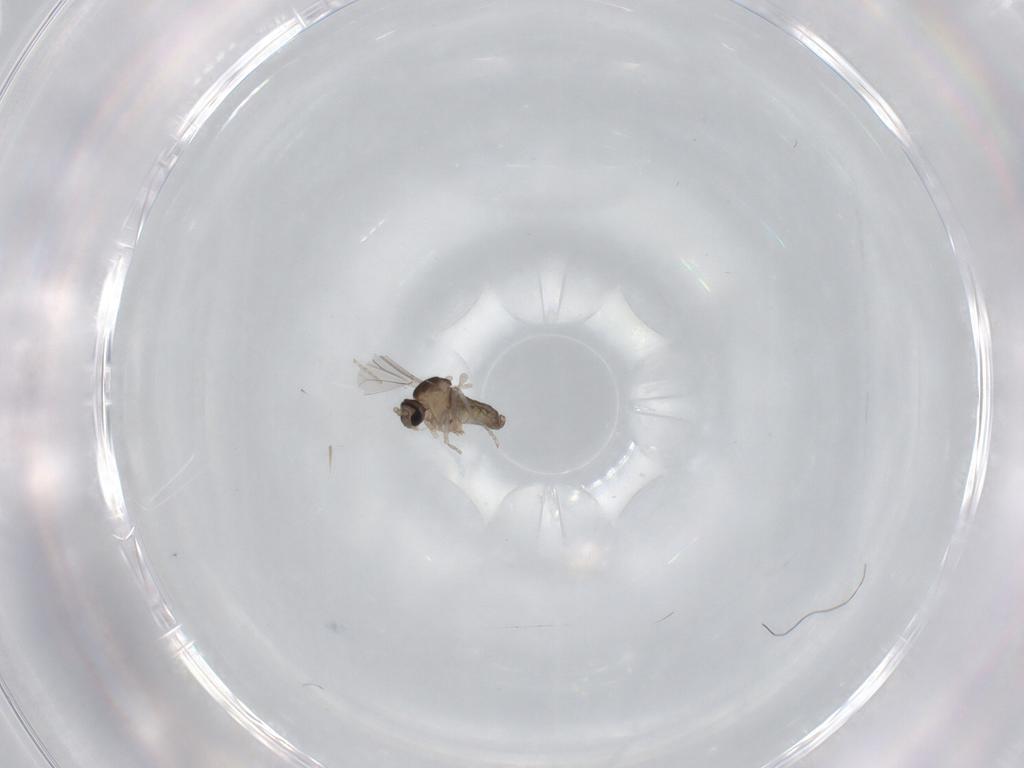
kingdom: Animalia
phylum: Arthropoda
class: Insecta
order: Diptera
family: Cecidomyiidae
